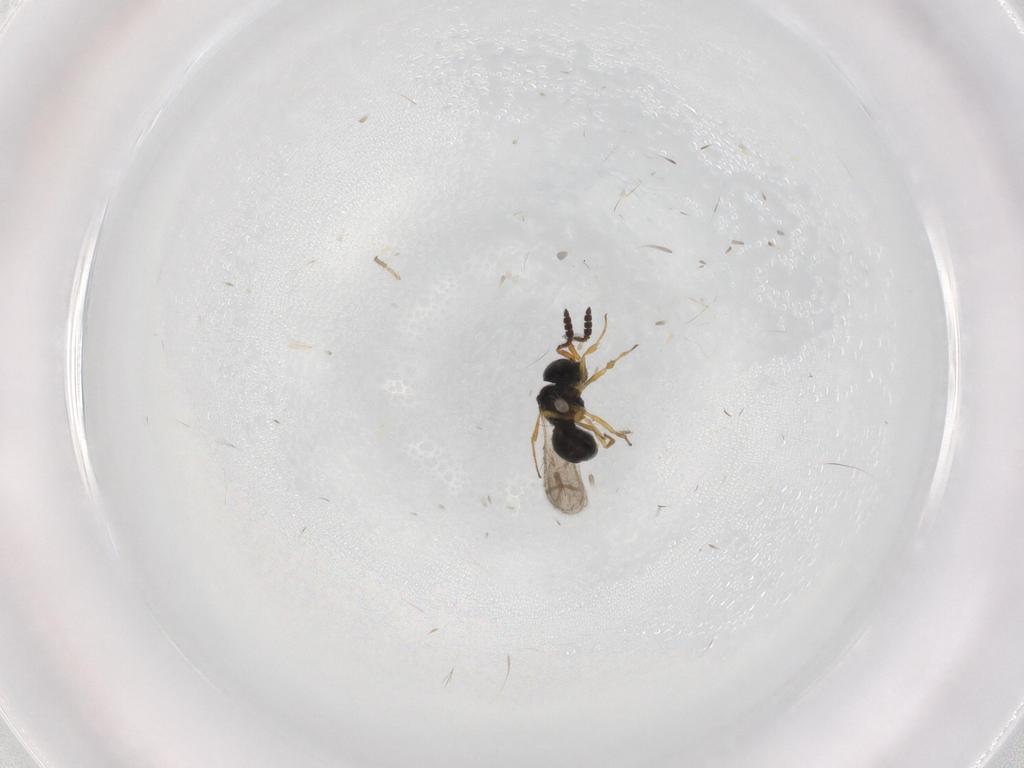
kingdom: Animalia
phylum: Arthropoda
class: Insecta
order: Hymenoptera
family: Scelionidae
